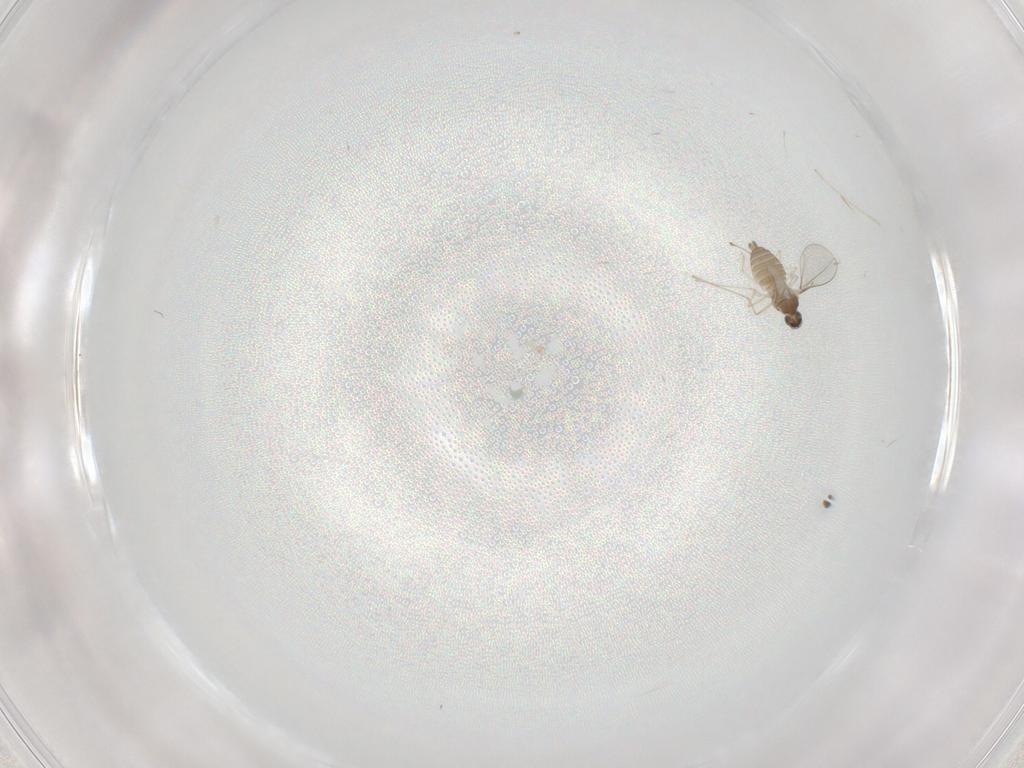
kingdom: Animalia
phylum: Arthropoda
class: Insecta
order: Diptera
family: Cecidomyiidae
